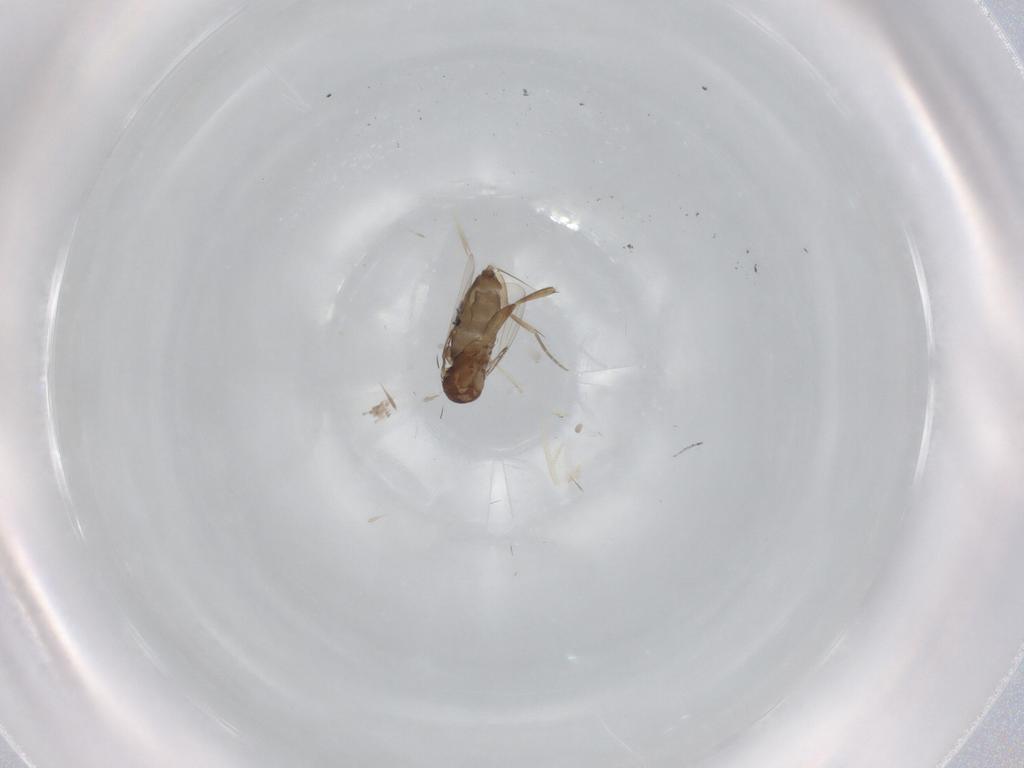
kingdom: Animalia
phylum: Arthropoda
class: Insecta
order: Diptera
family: Phoridae
